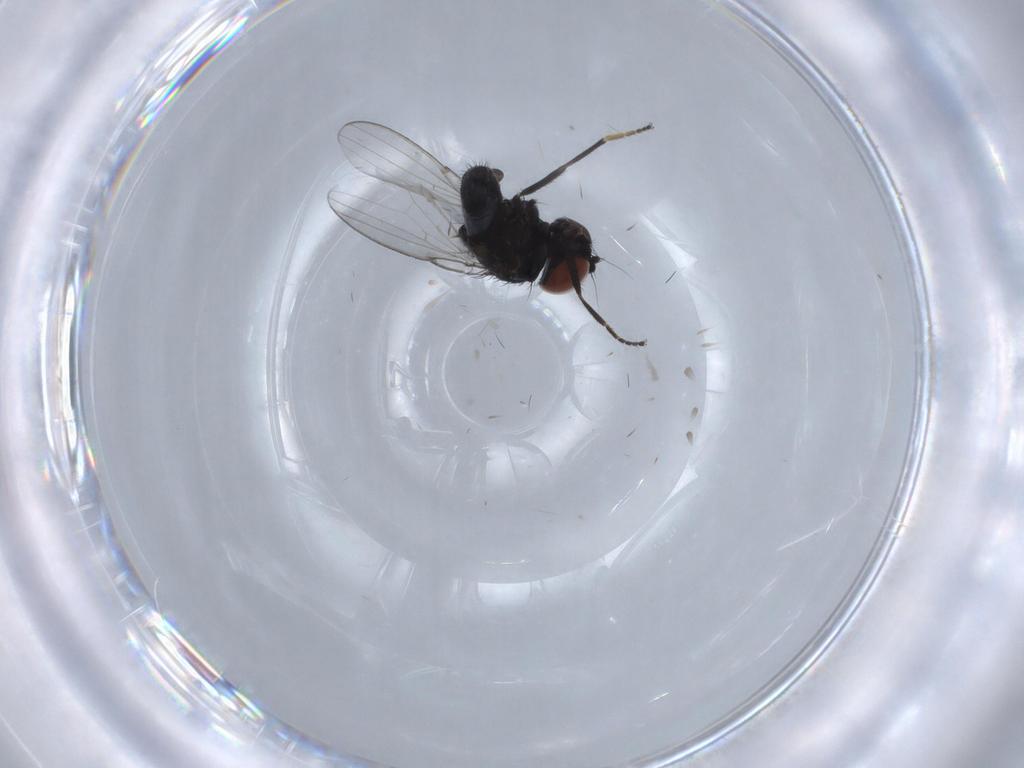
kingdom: Animalia
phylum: Arthropoda
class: Insecta
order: Diptera
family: Milichiidae
